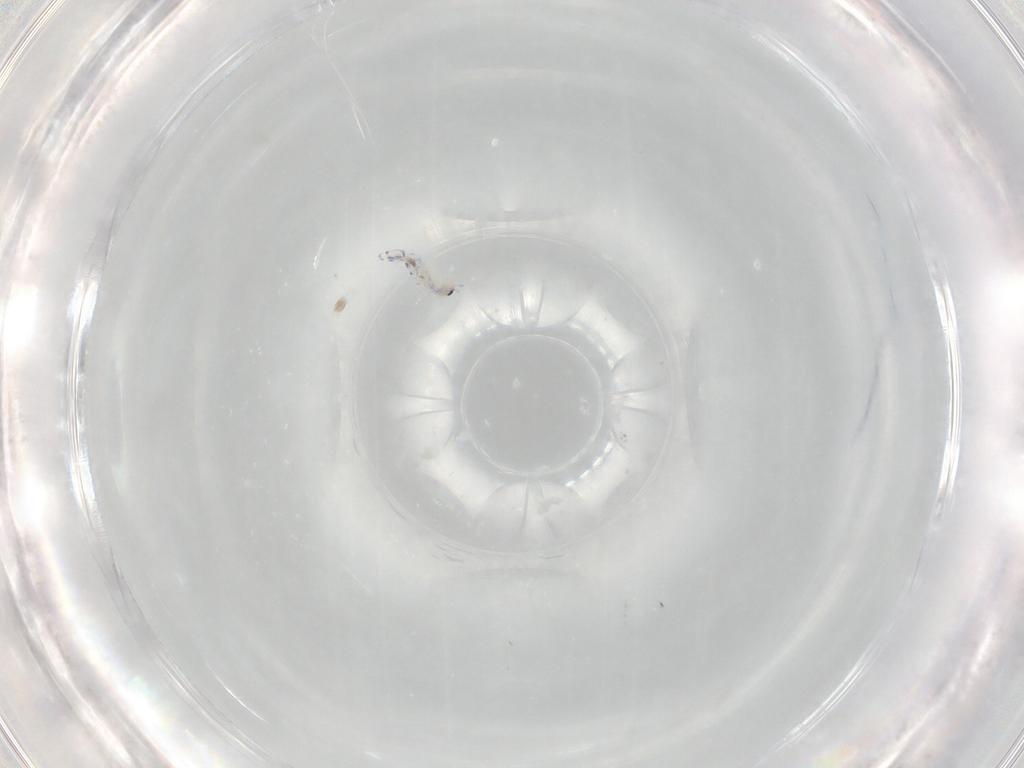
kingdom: Animalia
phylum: Arthropoda
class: Collembola
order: Entomobryomorpha
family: Entomobryidae
